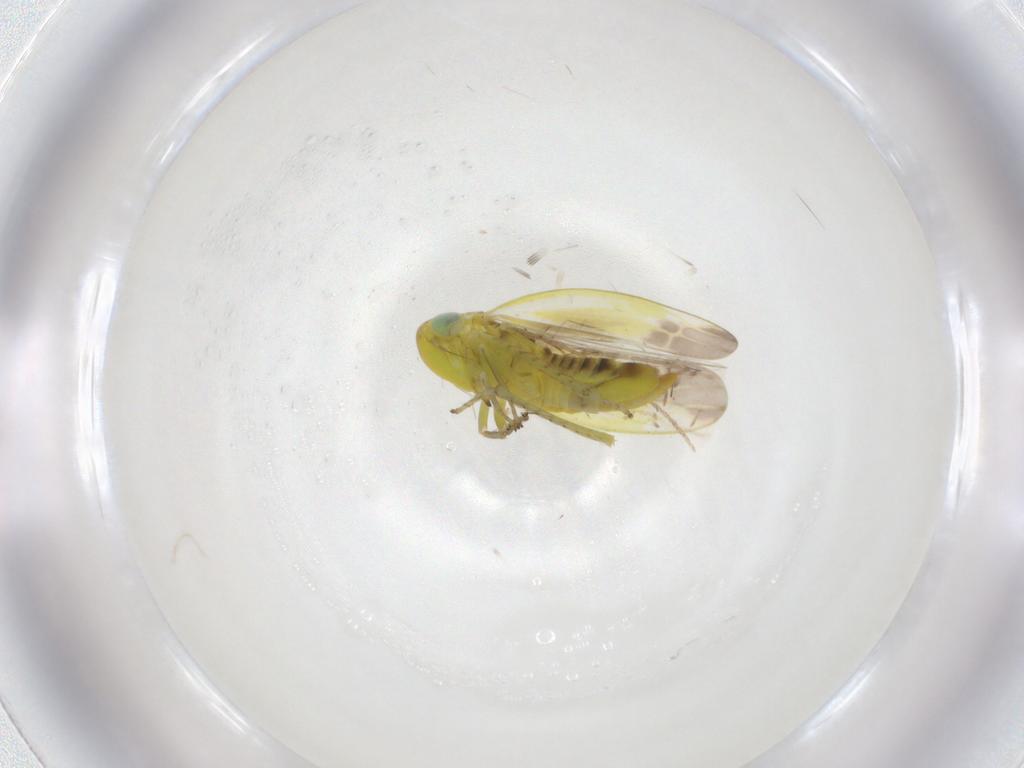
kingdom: Animalia
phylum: Arthropoda
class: Insecta
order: Hemiptera
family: Cicadellidae
